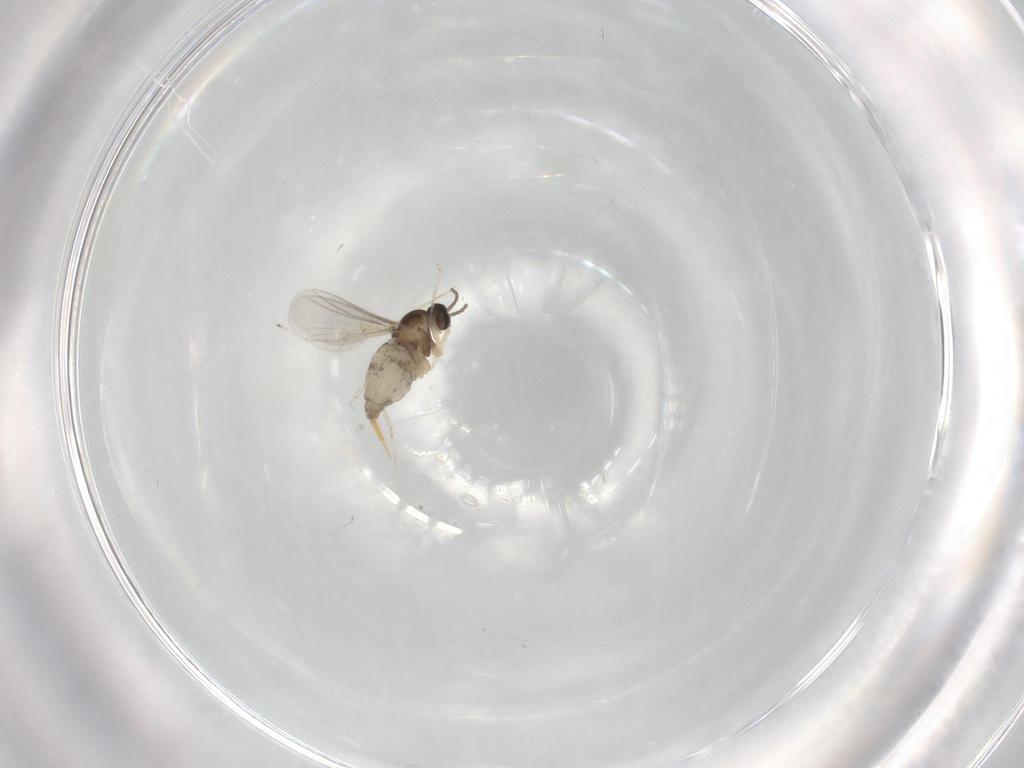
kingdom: Animalia
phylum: Arthropoda
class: Insecta
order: Diptera
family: Cecidomyiidae
